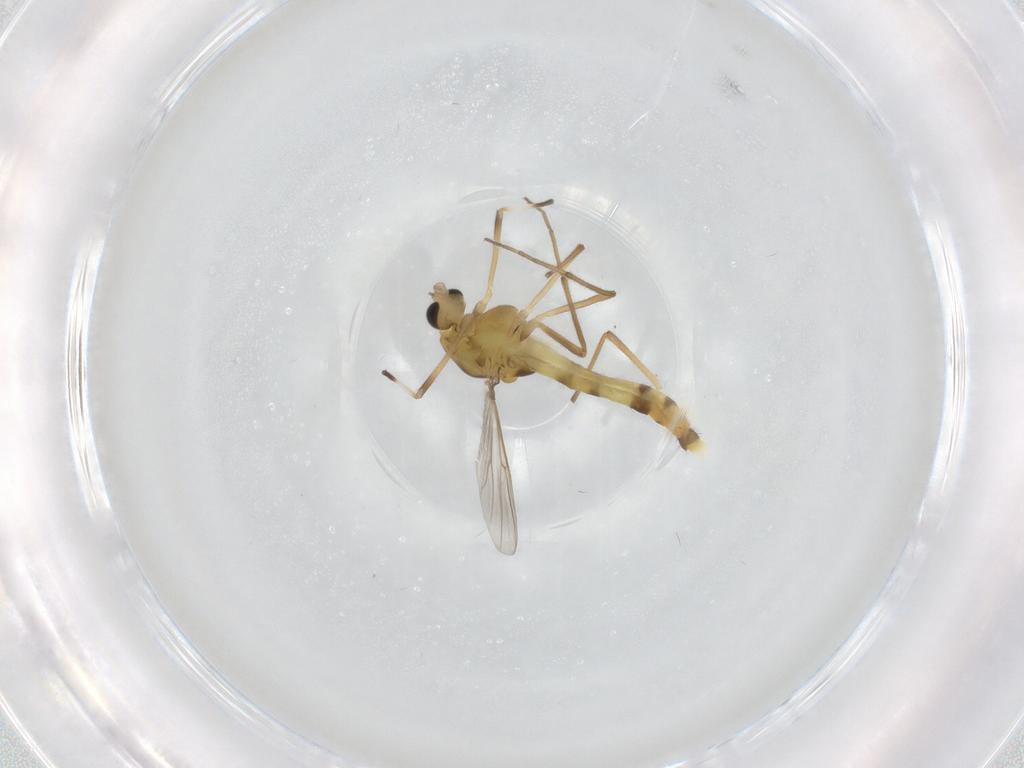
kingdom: Animalia
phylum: Arthropoda
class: Insecta
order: Diptera
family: Chironomidae
